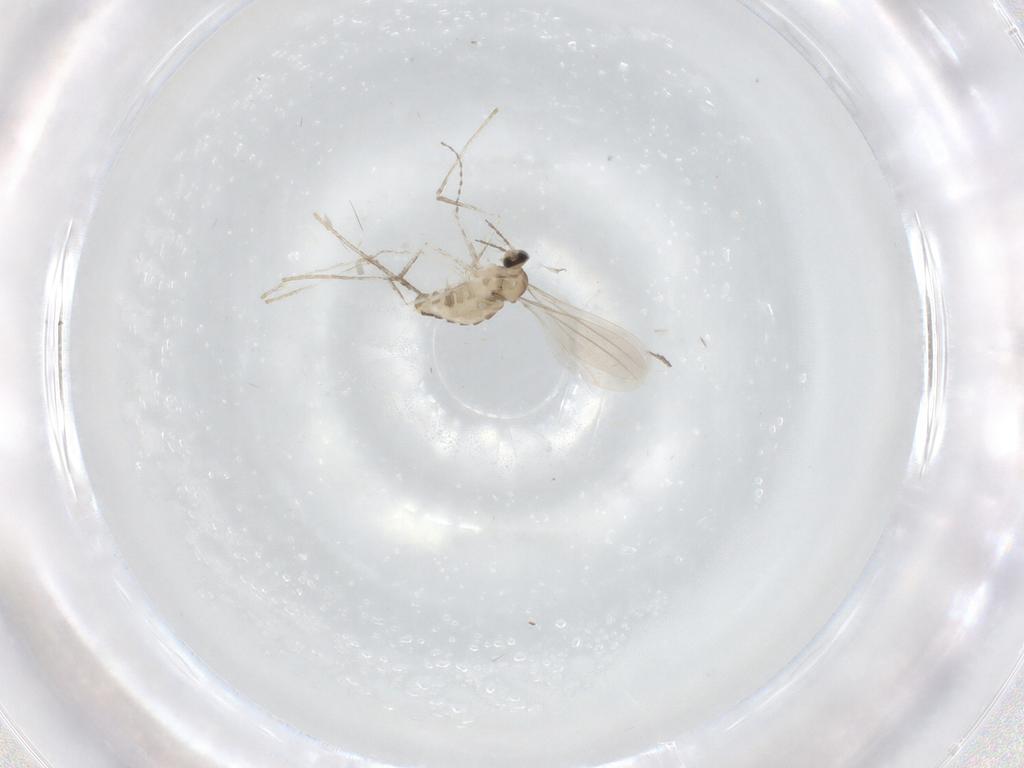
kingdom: Animalia
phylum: Arthropoda
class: Insecta
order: Diptera
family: Cecidomyiidae
